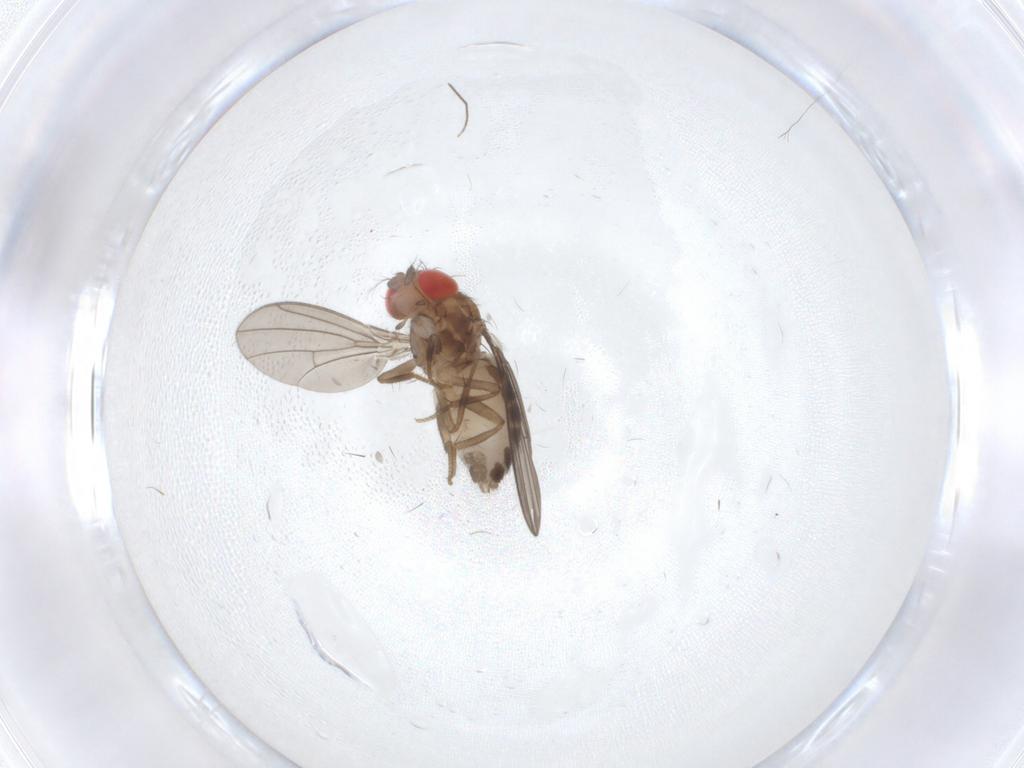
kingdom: Animalia
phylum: Arthropoda
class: Insecta
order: Diptera
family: Drosophilidae
